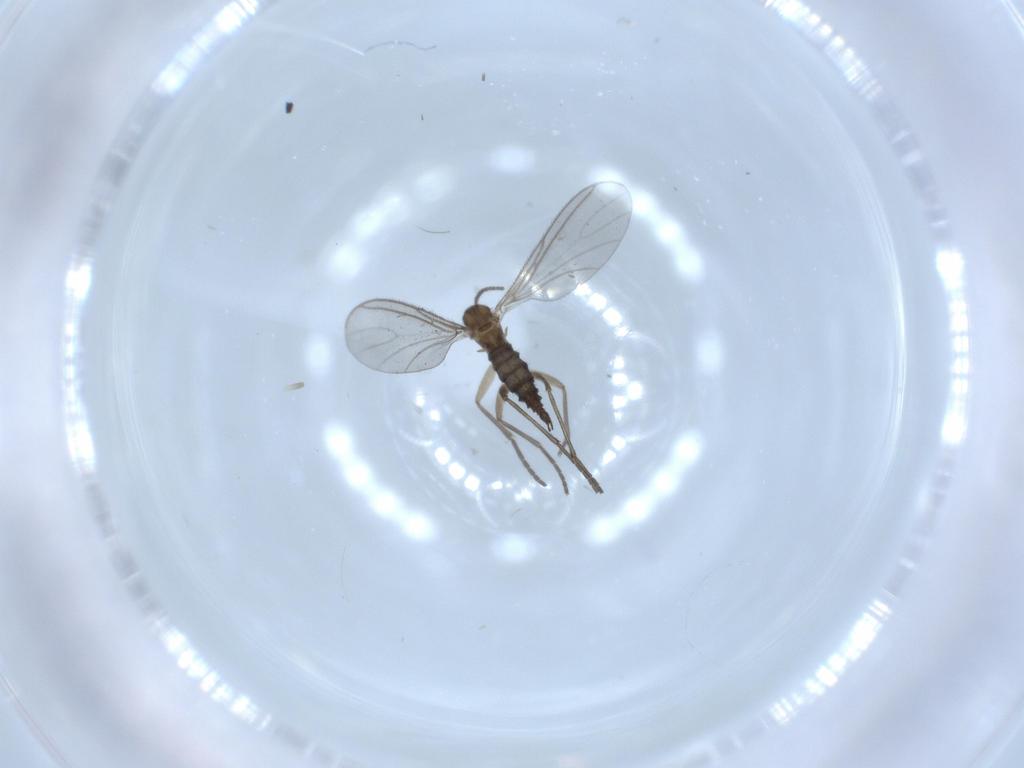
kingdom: Animalia
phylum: Arthropoda
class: Insecta
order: Diptera
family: Sciaridae
